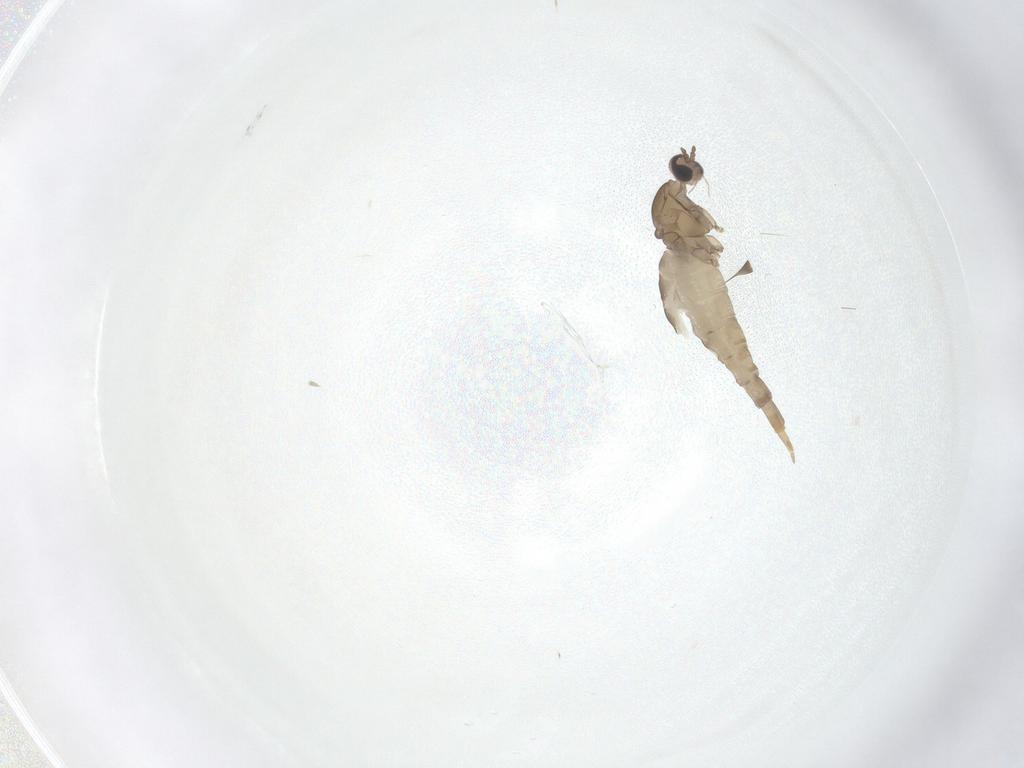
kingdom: Animalia
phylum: Arthropoda
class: Insecta
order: Diptera
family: Cecidomyiidae
